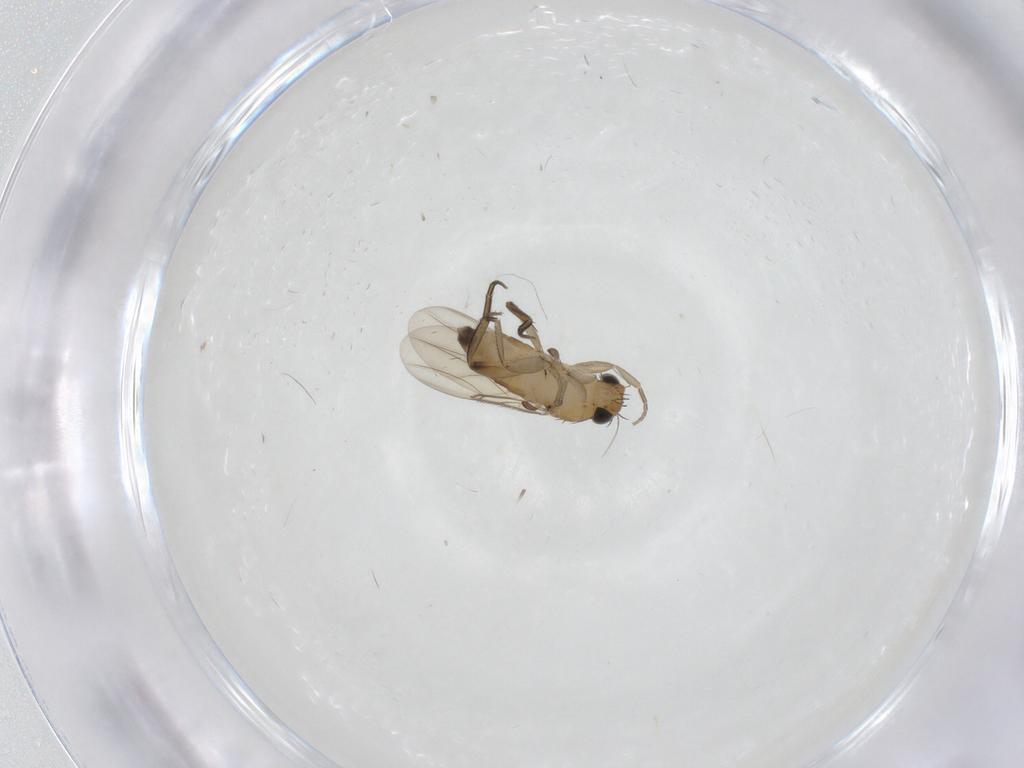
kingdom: Animalia
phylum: Arthropoda
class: Insecta
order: Diptera
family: Phoridae
